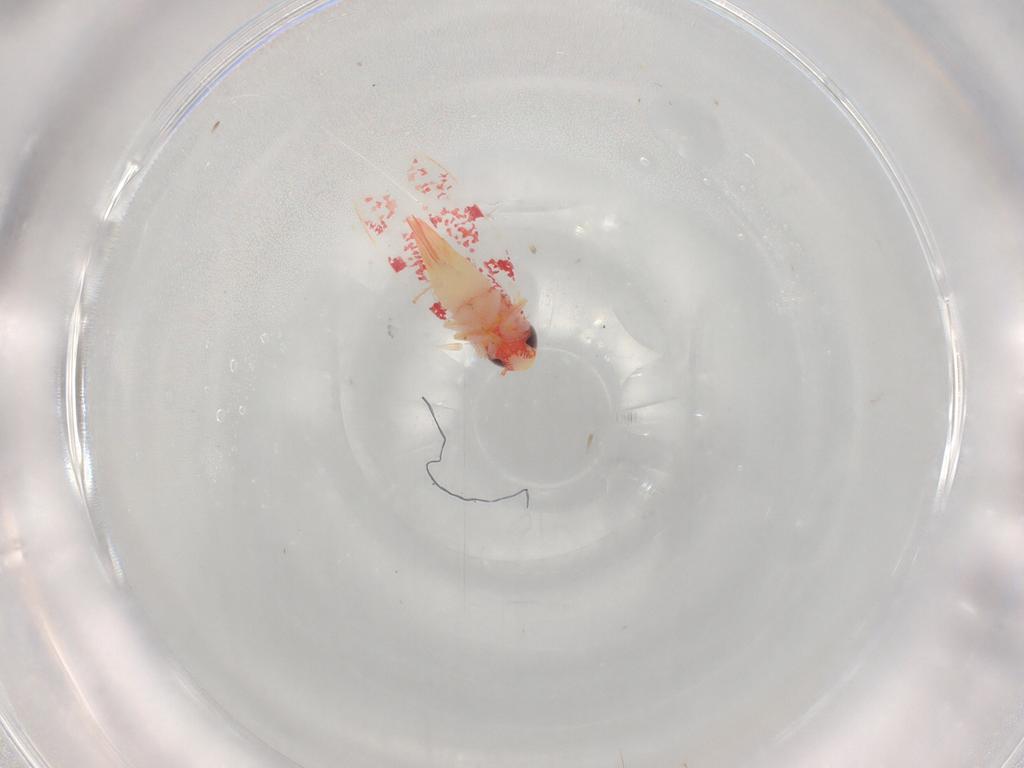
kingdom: Animalia
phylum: Arthropoda
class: Insecta
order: Hemiptera
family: Cicadellidae
